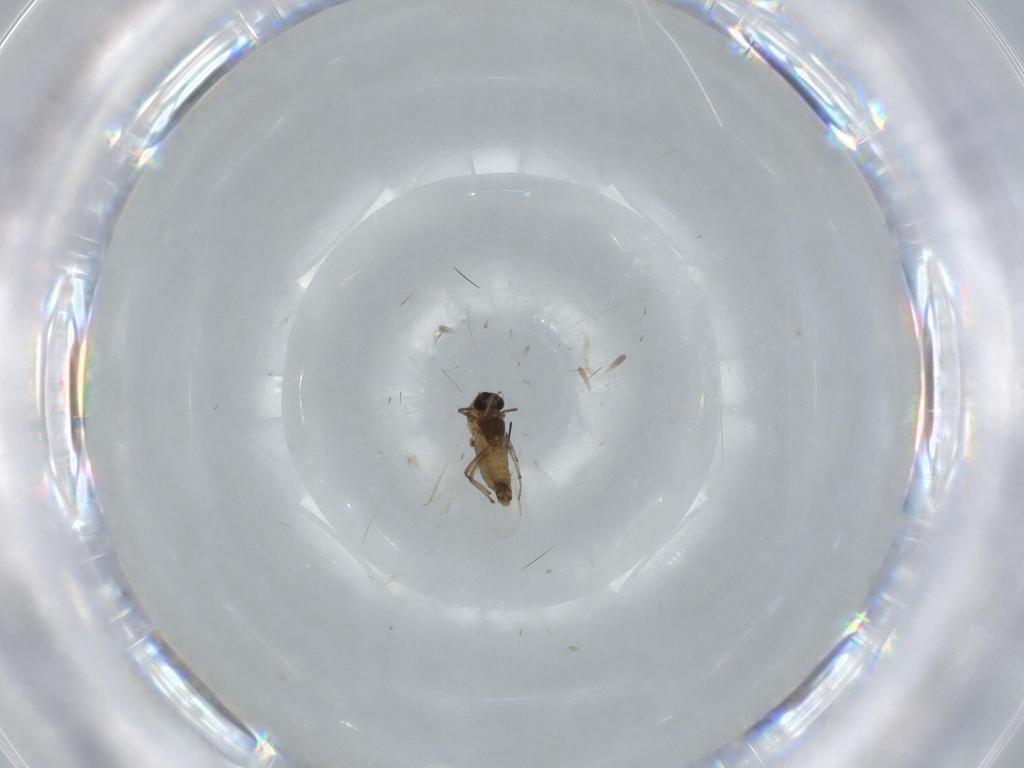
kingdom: Animalia
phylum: Arthropoda
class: Insecta
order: Diptera
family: Chironomidae
